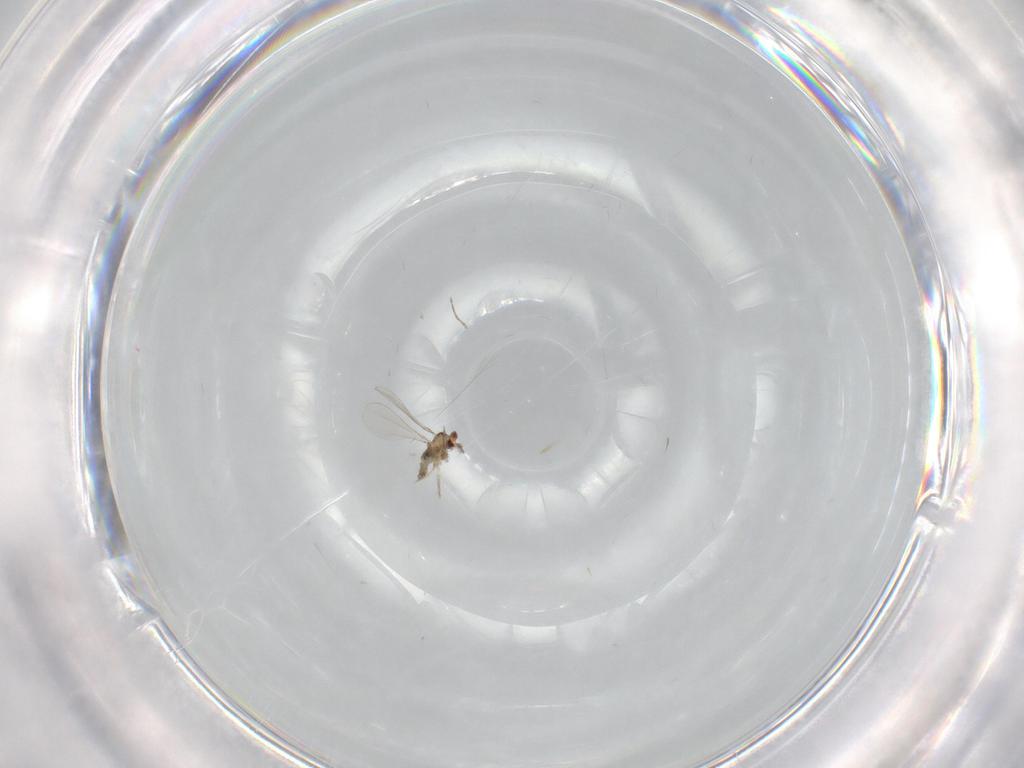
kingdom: Animalia
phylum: Arthropoda
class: Insecta
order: Diptera
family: Cecidomyiidae
